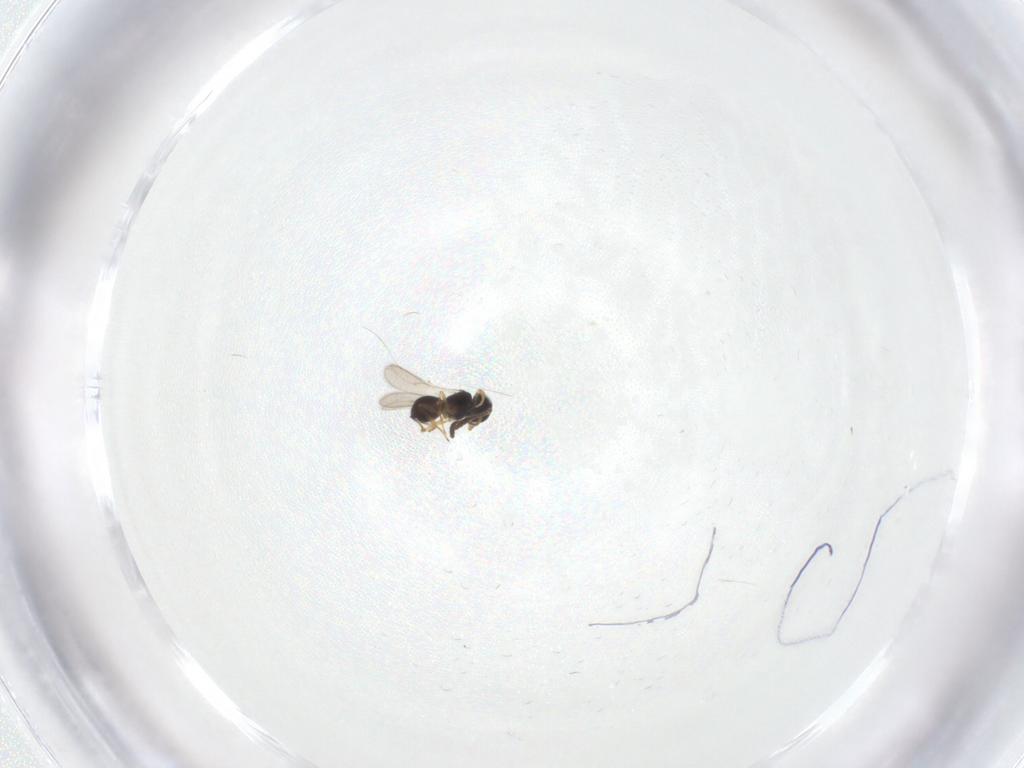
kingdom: Animalia
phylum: Arthropoda
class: Insecta
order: Hymenoptera
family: Scelionidae
